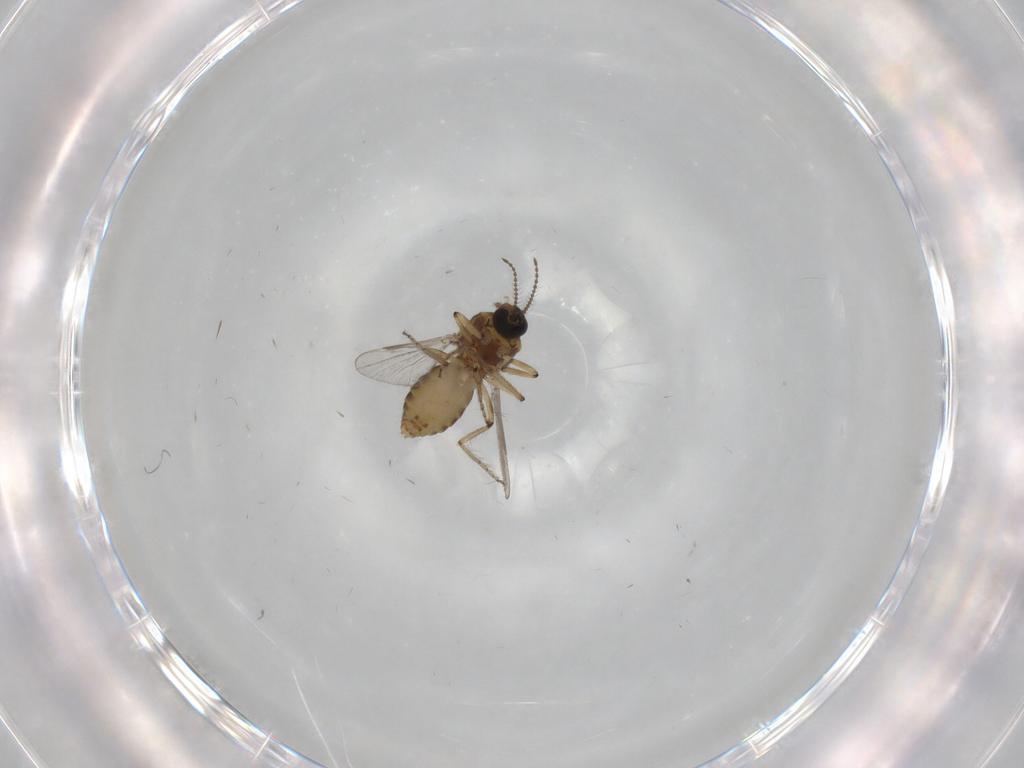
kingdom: Animalia
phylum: Arthropoda
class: Insecta
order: Diptera
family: Ceratopogonidae
